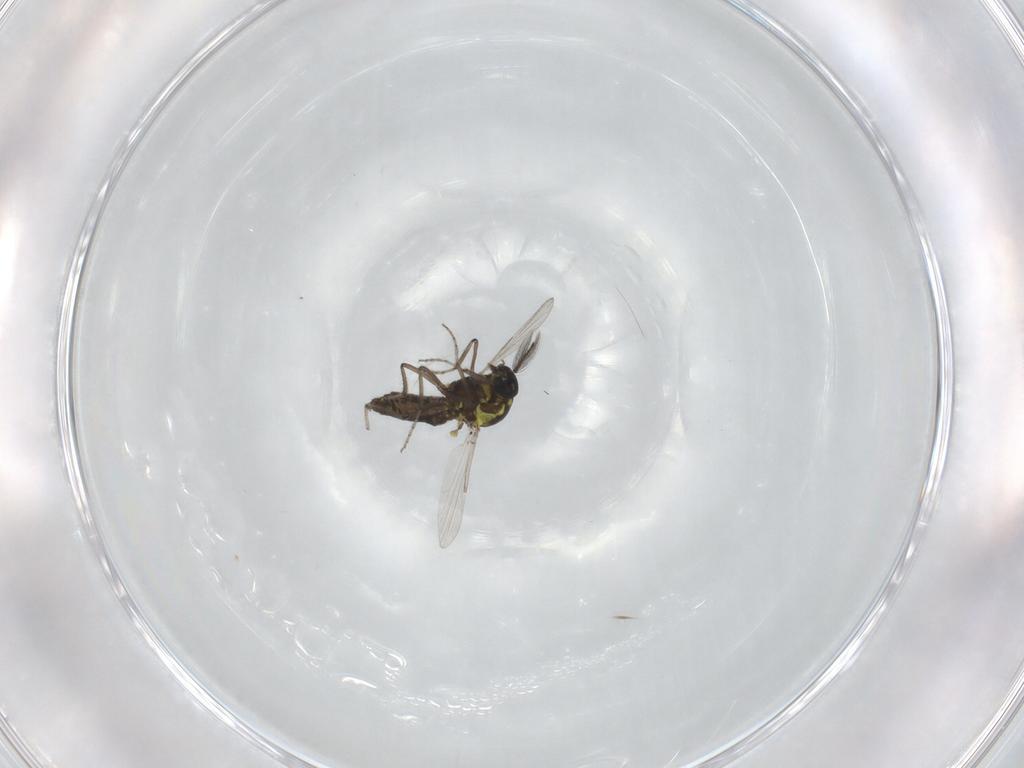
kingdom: Animalia
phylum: Arthropoda
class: Insecta
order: Diptera
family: Ceratopogonidae
